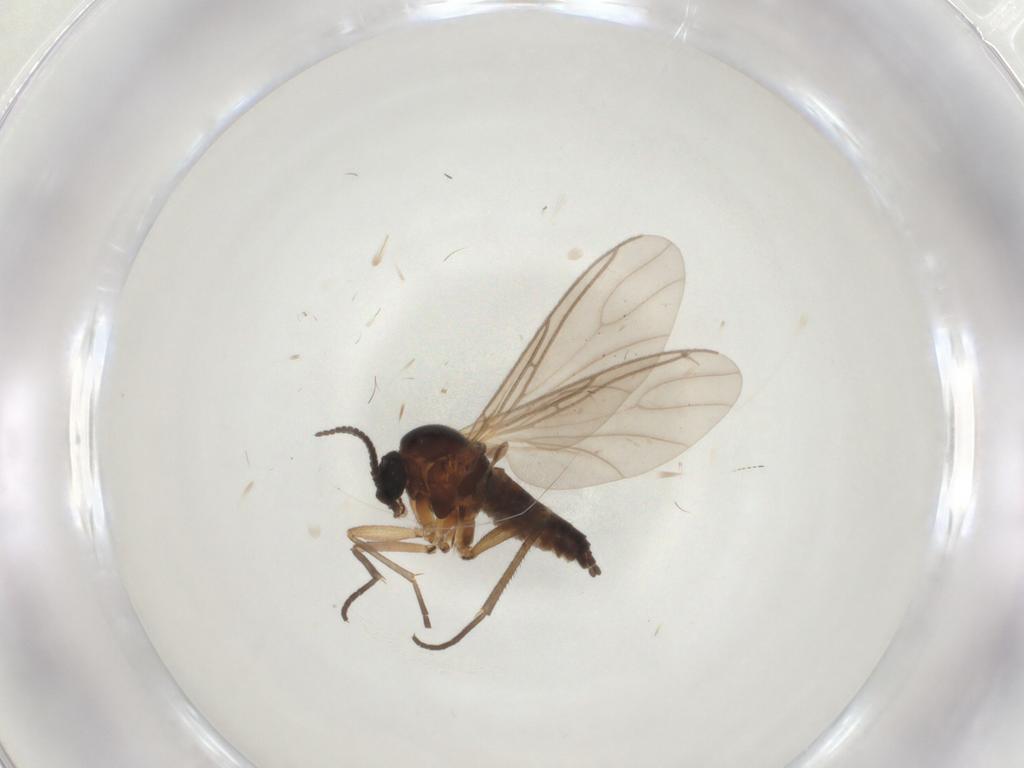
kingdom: Animalia
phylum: Arthropoda
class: Insecta
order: Diptera
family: Sciaridae
